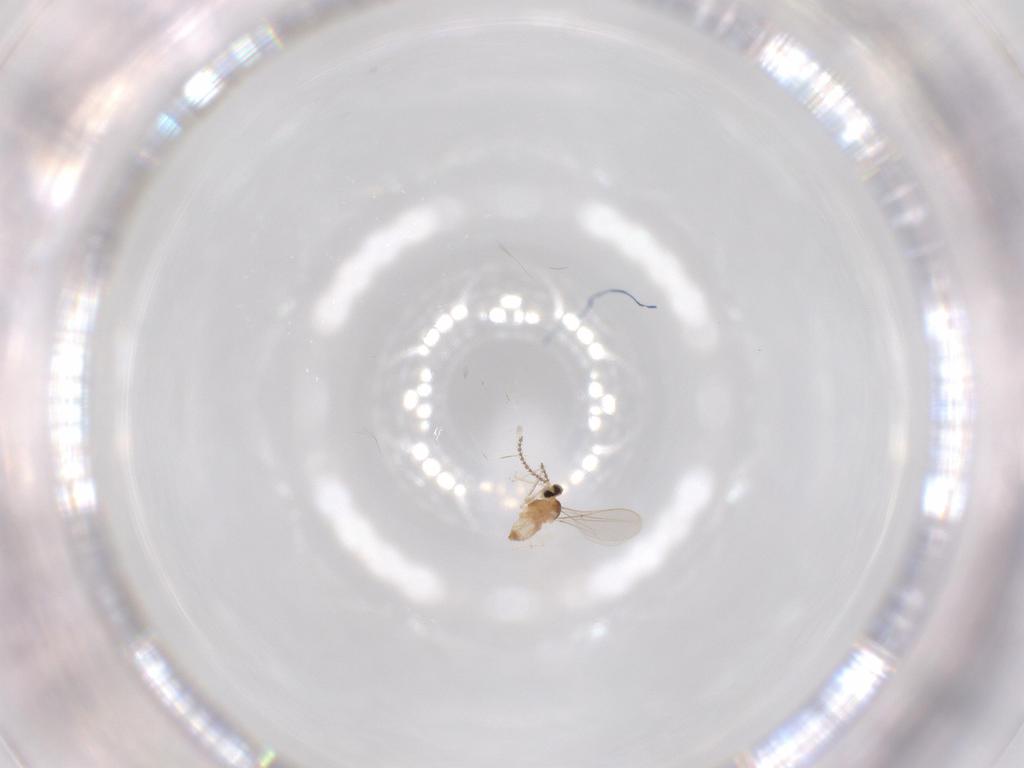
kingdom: Animalia
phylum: Arthropoda
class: Insecta
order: Diptera
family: Cecidomyiidae
